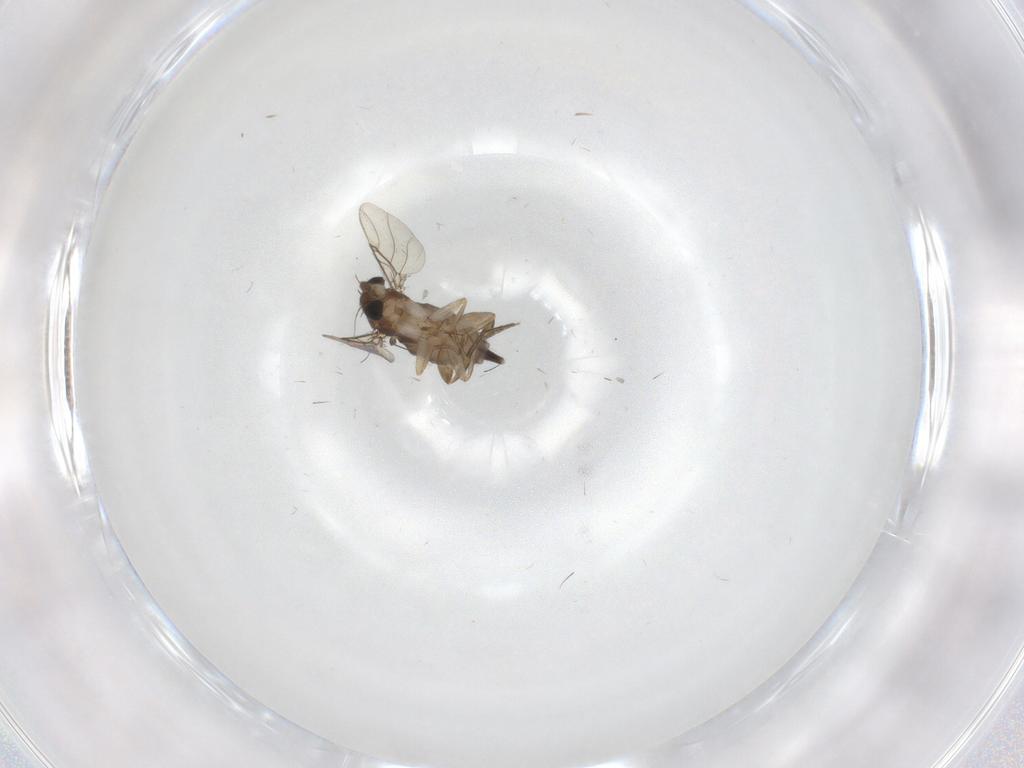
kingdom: Animalia
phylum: Arthropoda
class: Insecta
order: Diptera
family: Phoridae
